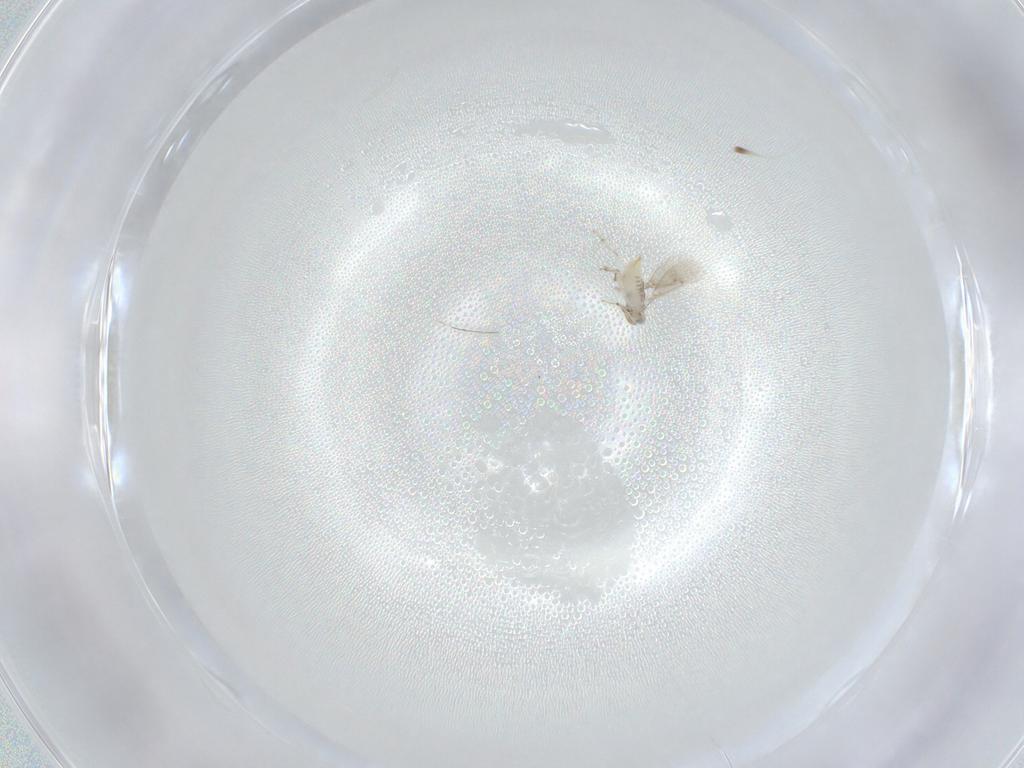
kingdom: Animalia
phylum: Arthropoda
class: Insecta
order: Hymenoptera
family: Aphelinidae
